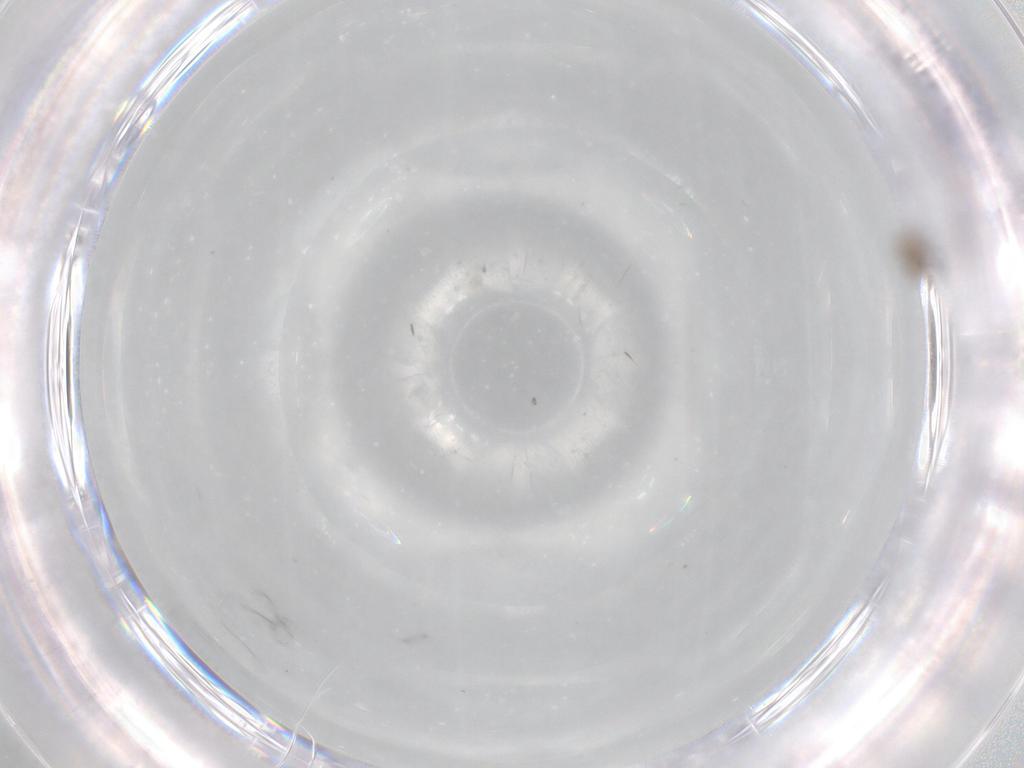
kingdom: Animalia
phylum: Arthropoda
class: Insecta
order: Diptera
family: Cecidomyiidae
